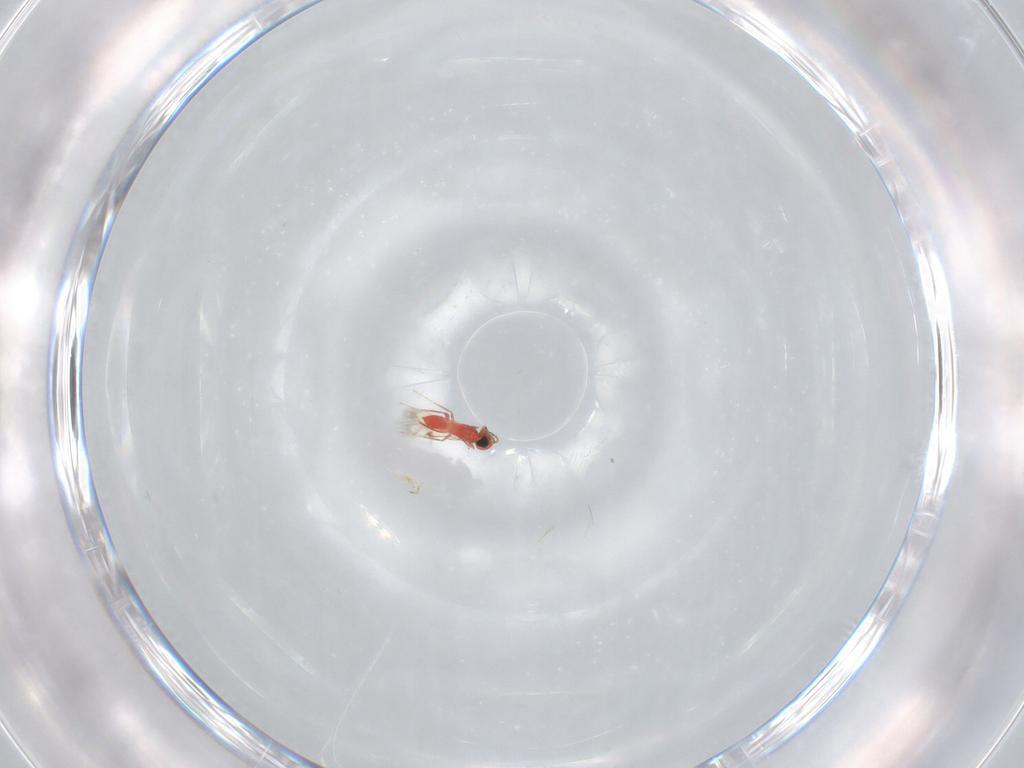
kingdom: Animalia
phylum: Arthropoda
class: Insecta
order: Hymenoptera
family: Trichogrammatidae
